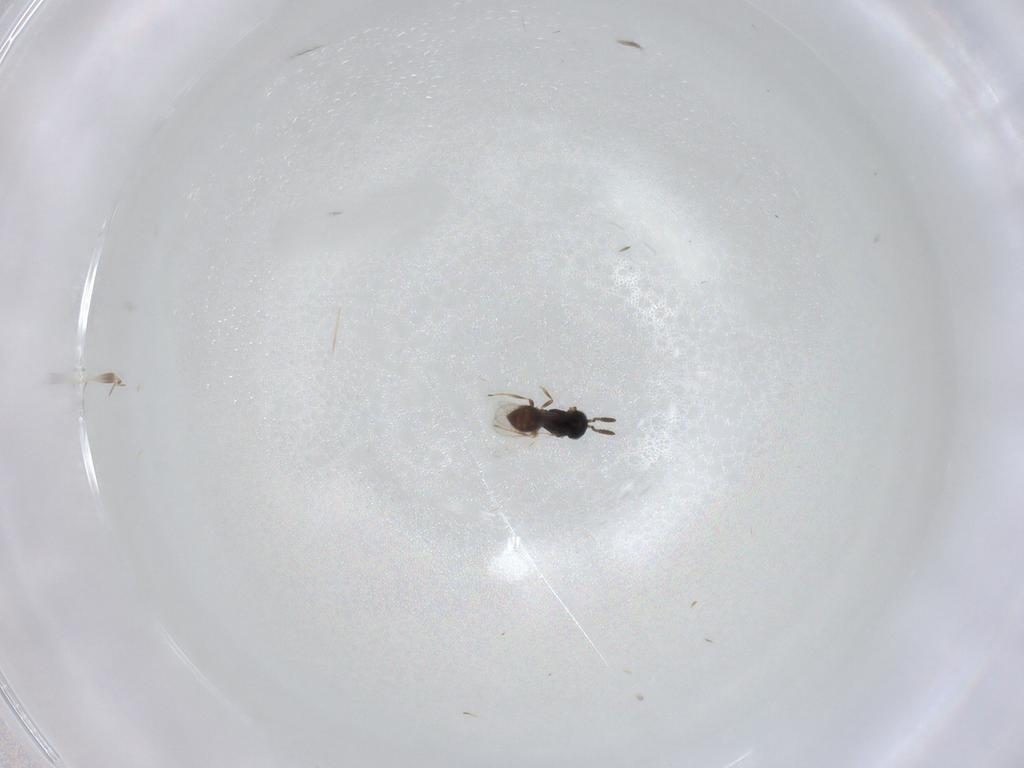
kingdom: Animalia
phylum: Arthropoda
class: Insecta
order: Hymenoptera
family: Scelionidae
